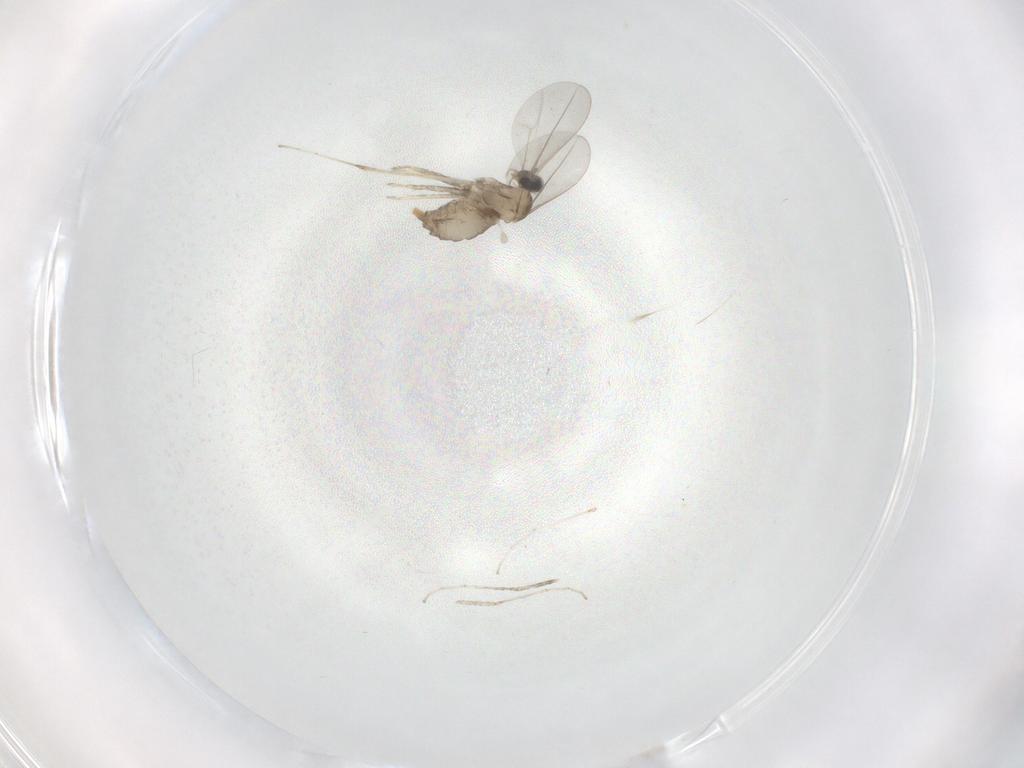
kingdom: Animalia
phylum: Arthropoda
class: Insecta
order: Diptera
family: Cecidomyiidae
